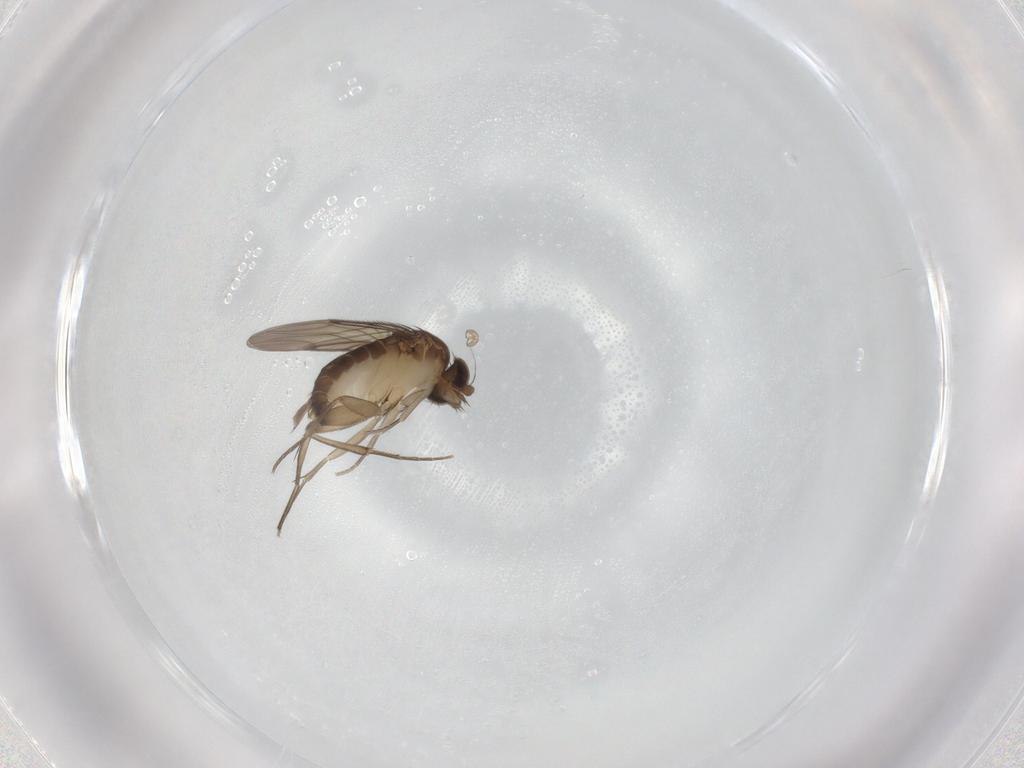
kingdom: Animalia
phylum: Arthropoda
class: Insecta
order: Diptera
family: Phoridae
